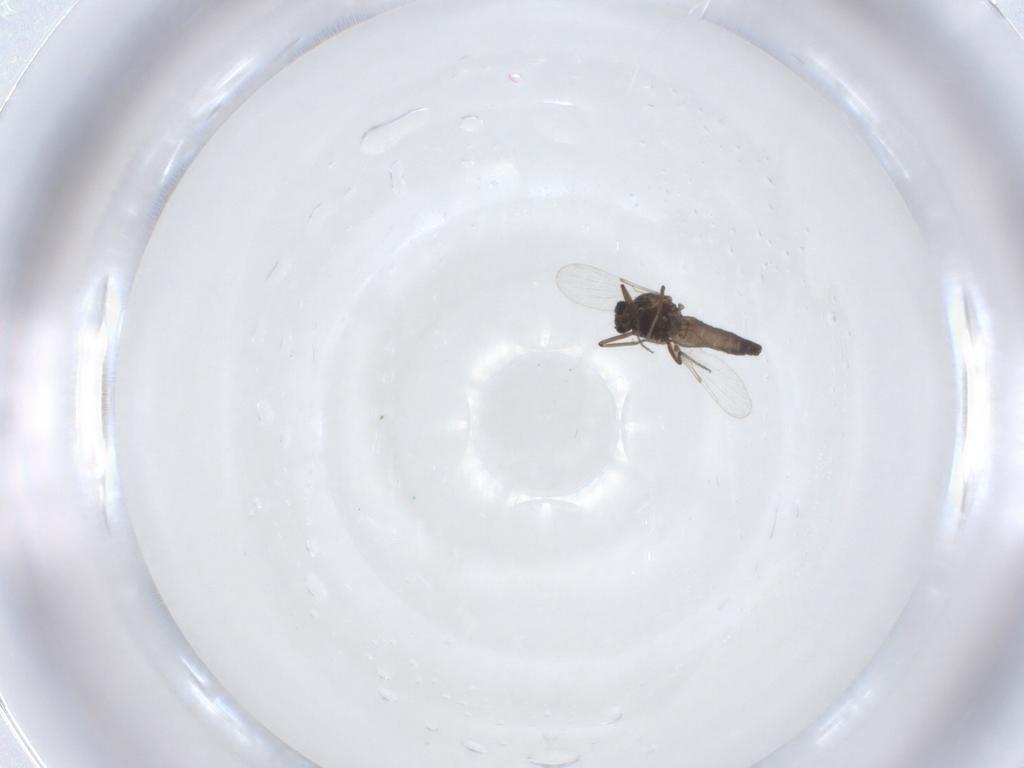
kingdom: Animalia
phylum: Arthropoda
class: Insecta
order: Diptera
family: Ceratopogonidae
